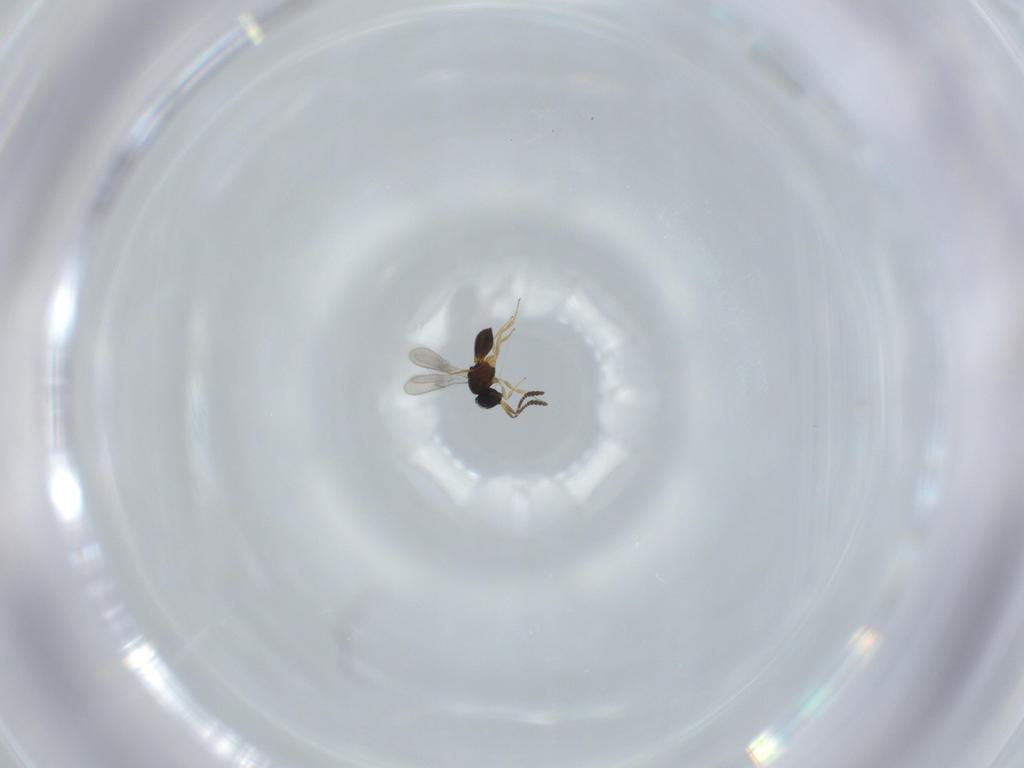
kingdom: Animalia
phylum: Arthropoda
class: Insecta
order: Hymenoptera
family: Scelionidae
